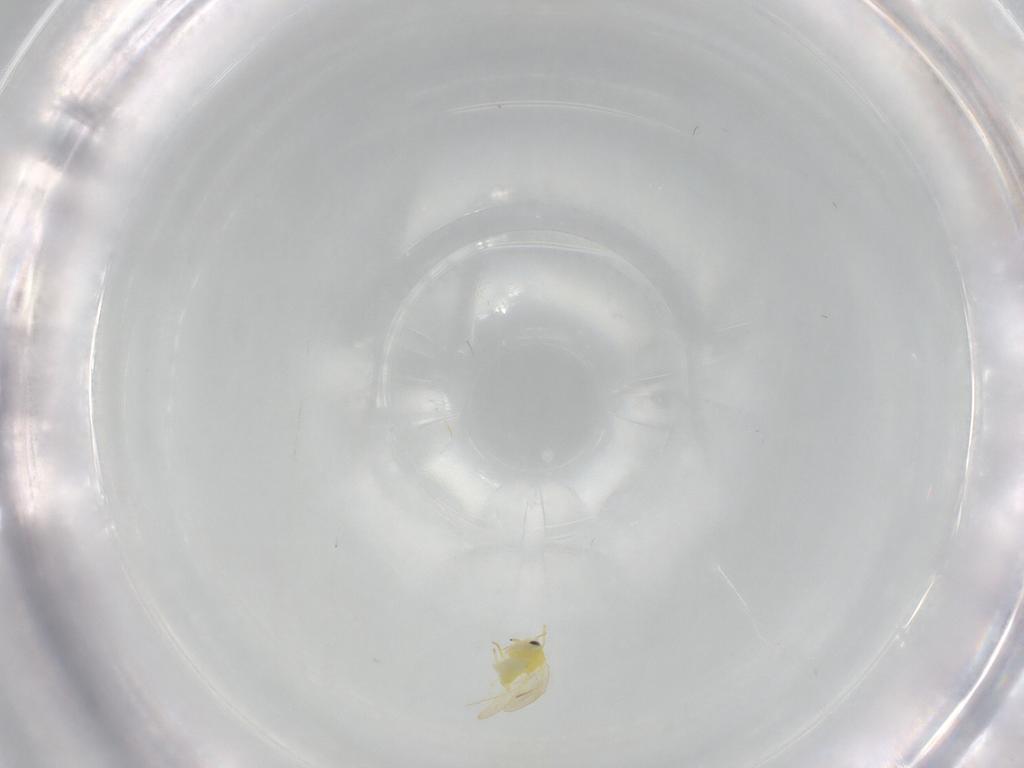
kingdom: Animalia
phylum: Arthropoda
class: Insecta
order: Hemiptera
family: Aleyrodidae
